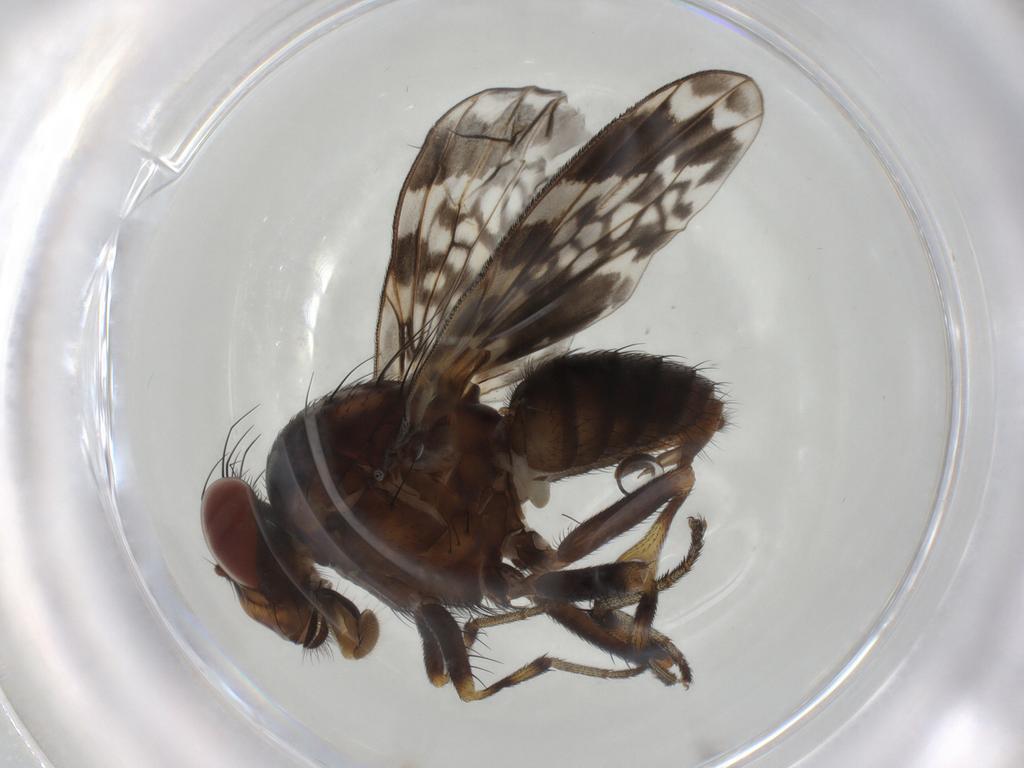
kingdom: Animalia
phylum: Arthropoda
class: Insecta
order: Diptera
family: Lauxaniidae
